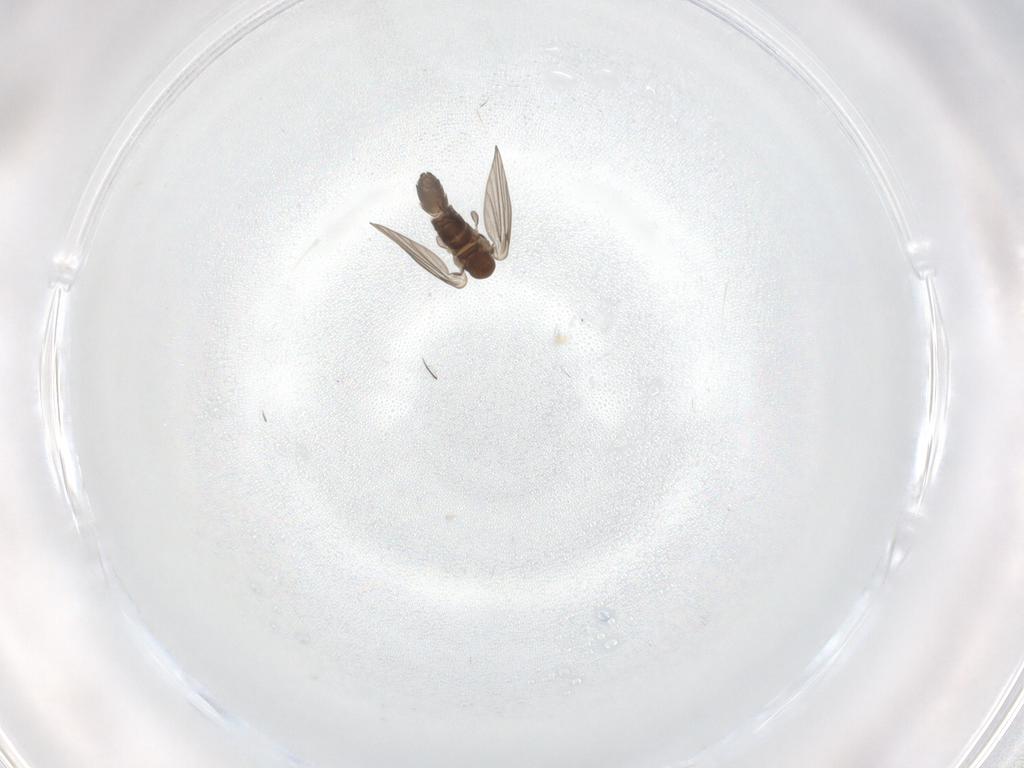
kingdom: Animalia
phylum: Arthropoda
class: Insecta
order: Diptera
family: Psychodidae
